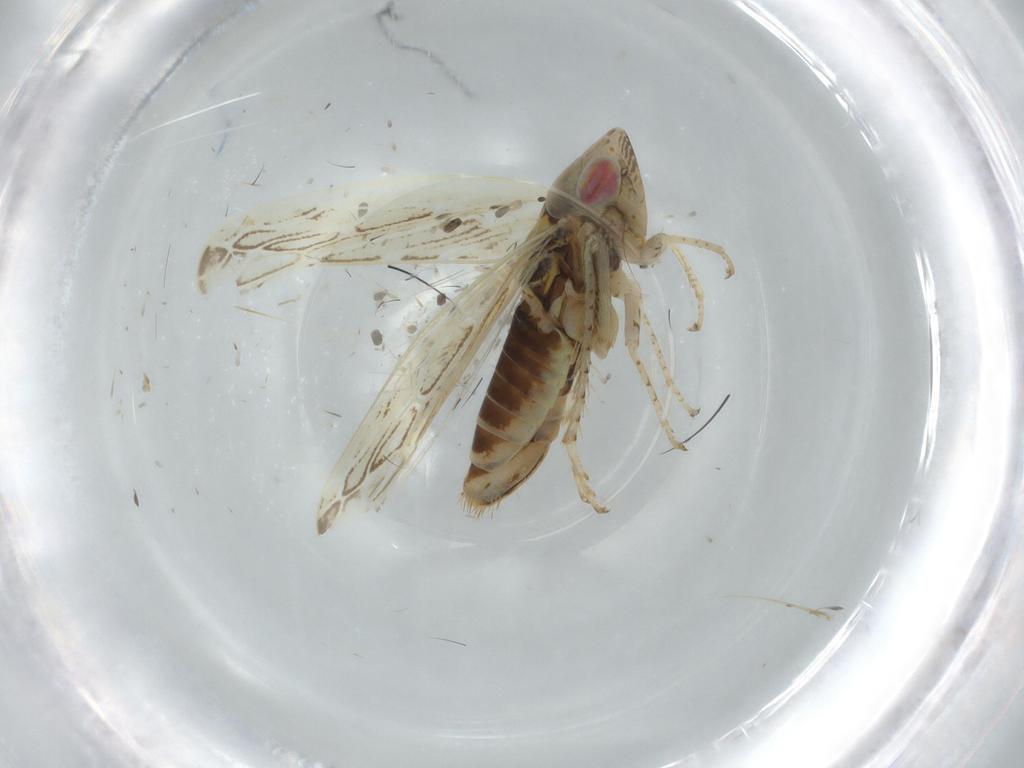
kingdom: Animalia
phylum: Arthropoda
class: Insecta
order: Hemiptera
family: Cicadellidae
